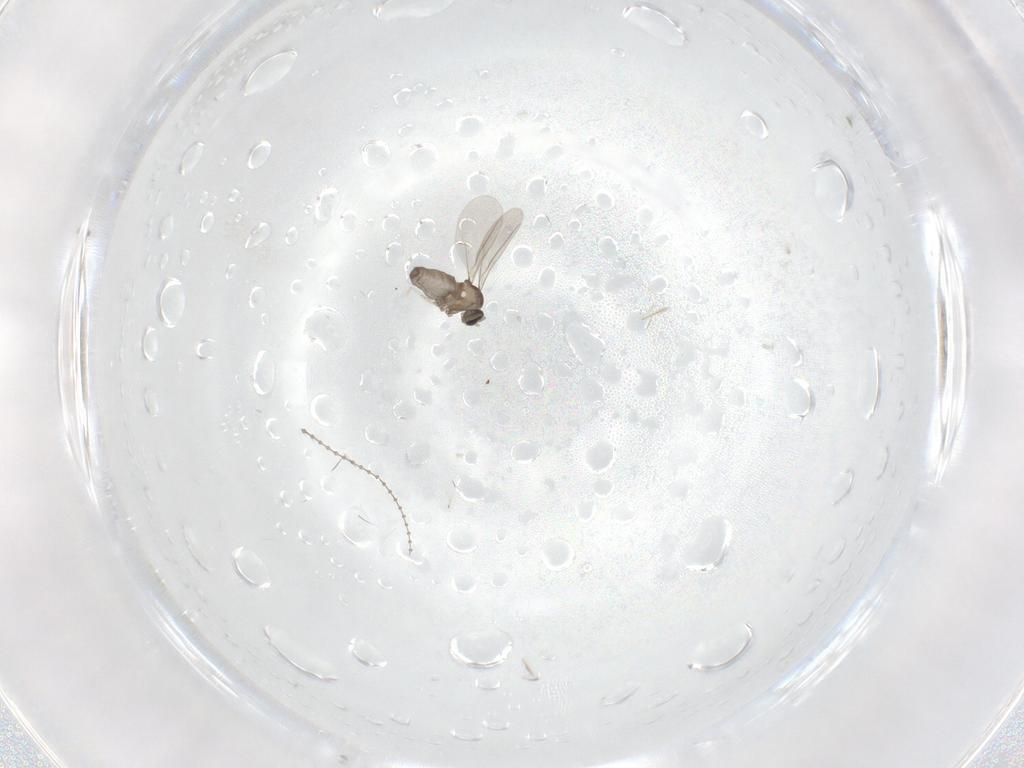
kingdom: Animalia
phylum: Arthropoda
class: Insecta
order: Diptera
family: Cecidomyiidae
